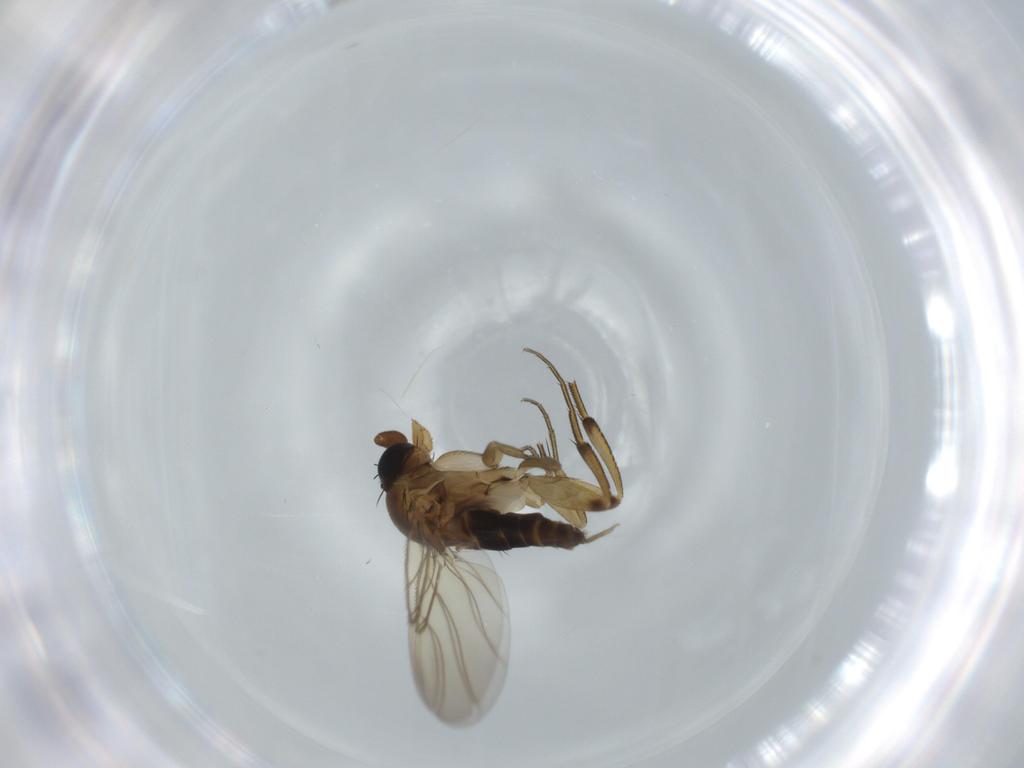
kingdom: Animalia
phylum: Arthropoda
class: Insecta
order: Diptera
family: Phoridae
